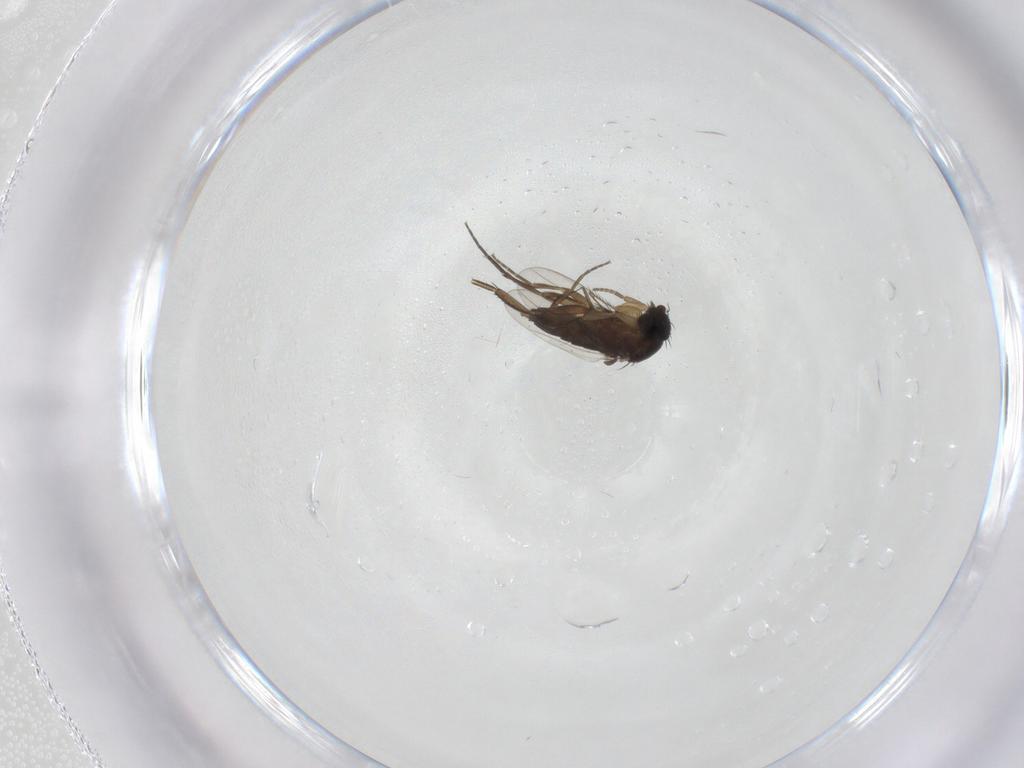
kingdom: Animalia
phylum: Arthropoda
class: Insecta
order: Diptera
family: Phoridae
